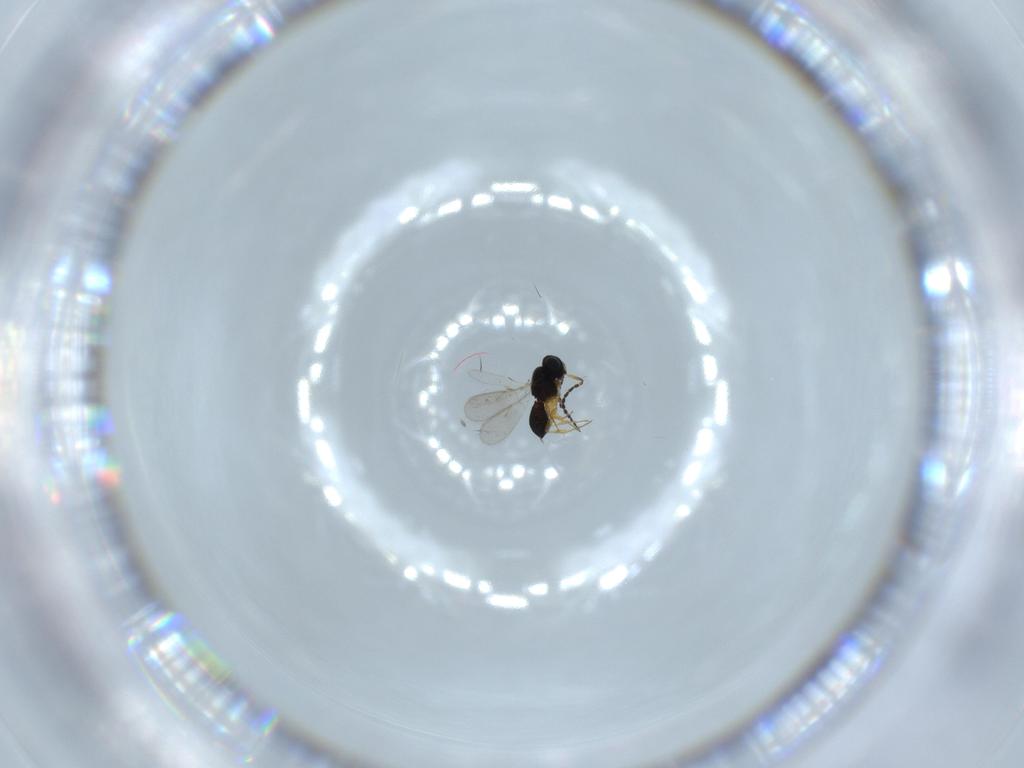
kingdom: Animalia
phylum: Arthropoda
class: Insecta
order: Hymenoptera
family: Scelionidae
